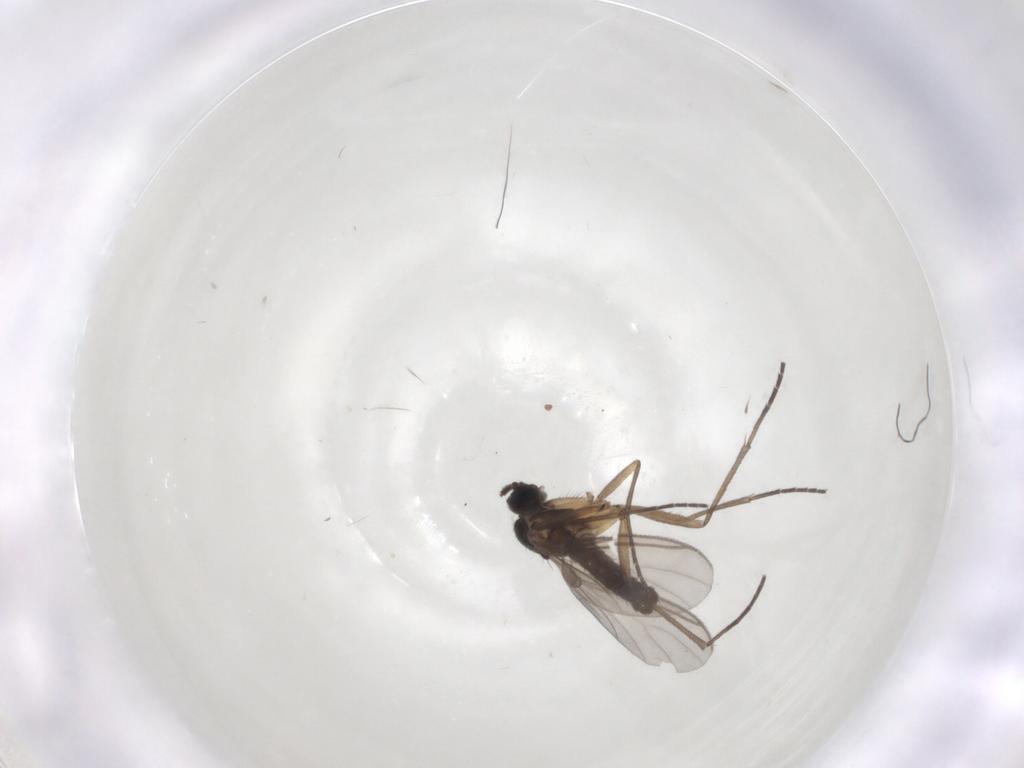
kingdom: Animalia
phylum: Arthropoda
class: Insecta
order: Diptera
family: Sciaridae
